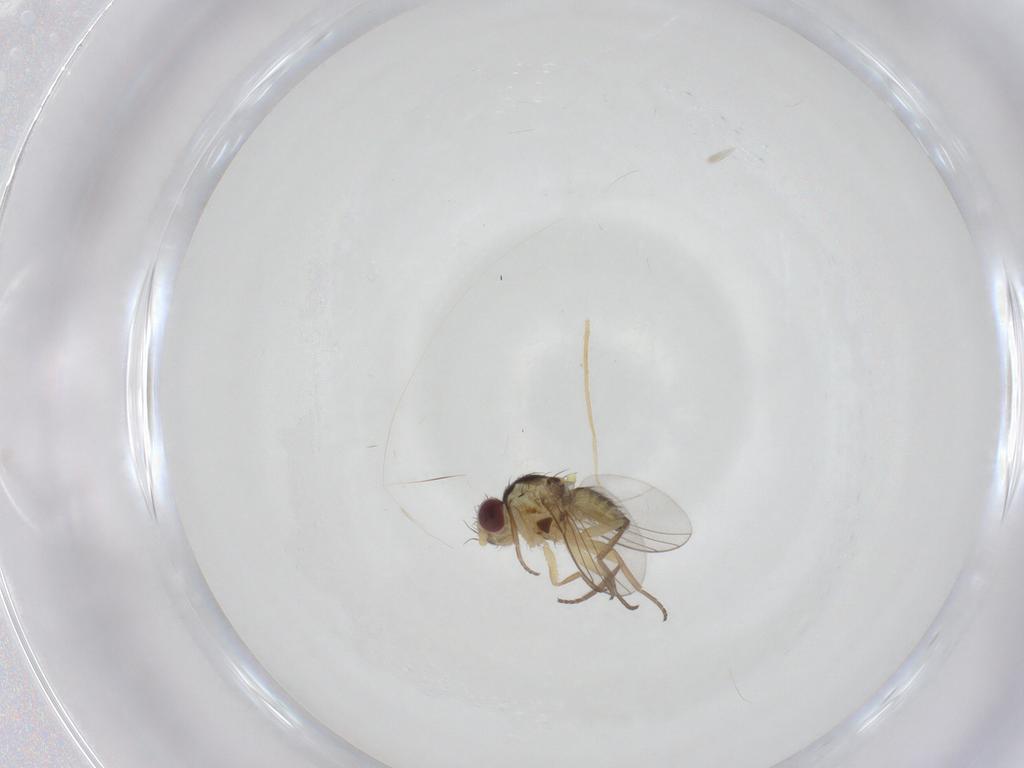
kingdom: Animalia
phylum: Arthropoda
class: Insecta
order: Diptera
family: Agromyzidae
